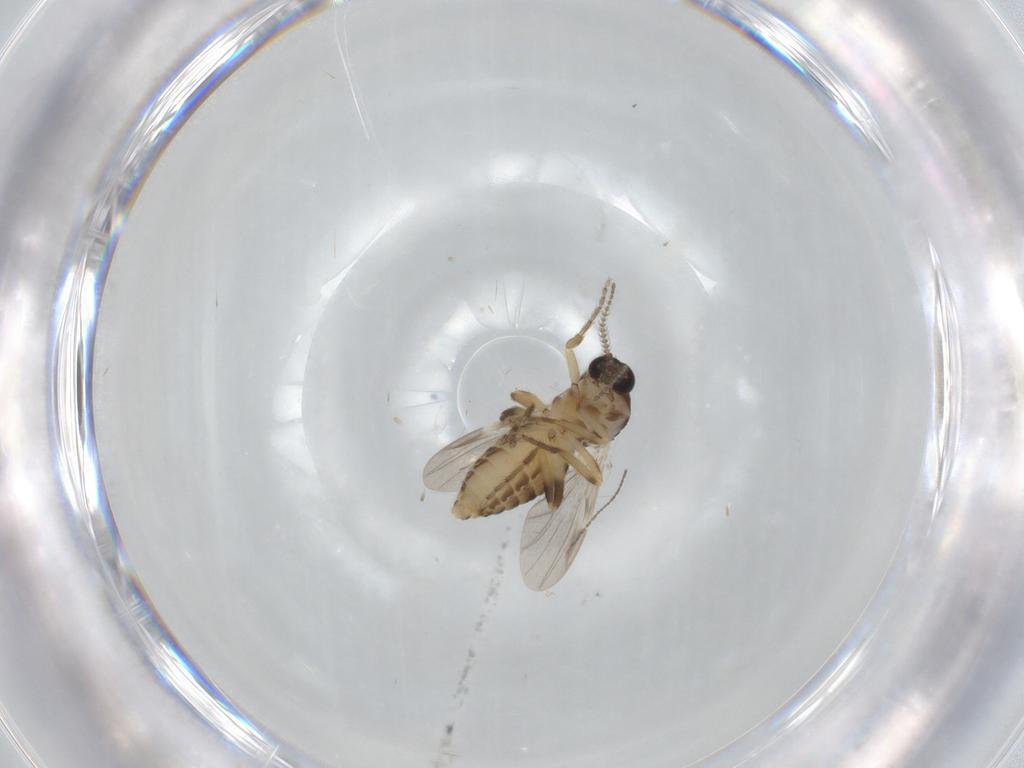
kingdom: Animalia
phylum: Arthropoda
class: Insecta
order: Diptera
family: Ceratopogonidae
